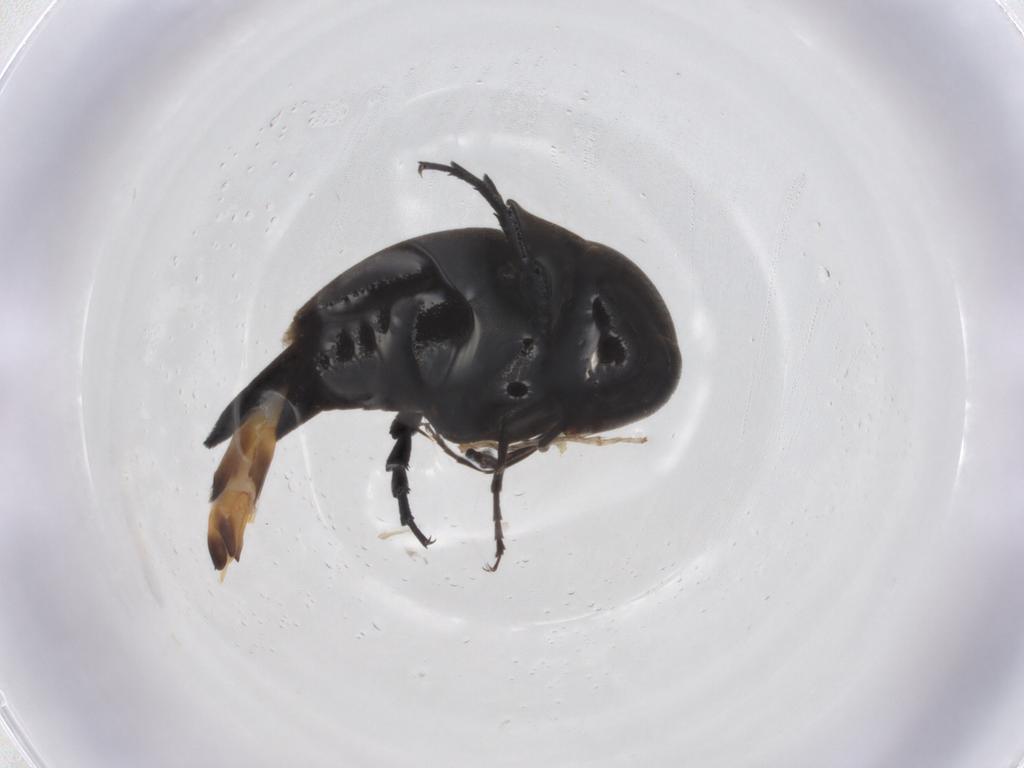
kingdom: Animalia
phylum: Arthropoda
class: Insecta
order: Coleoptera
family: Mordellidae
